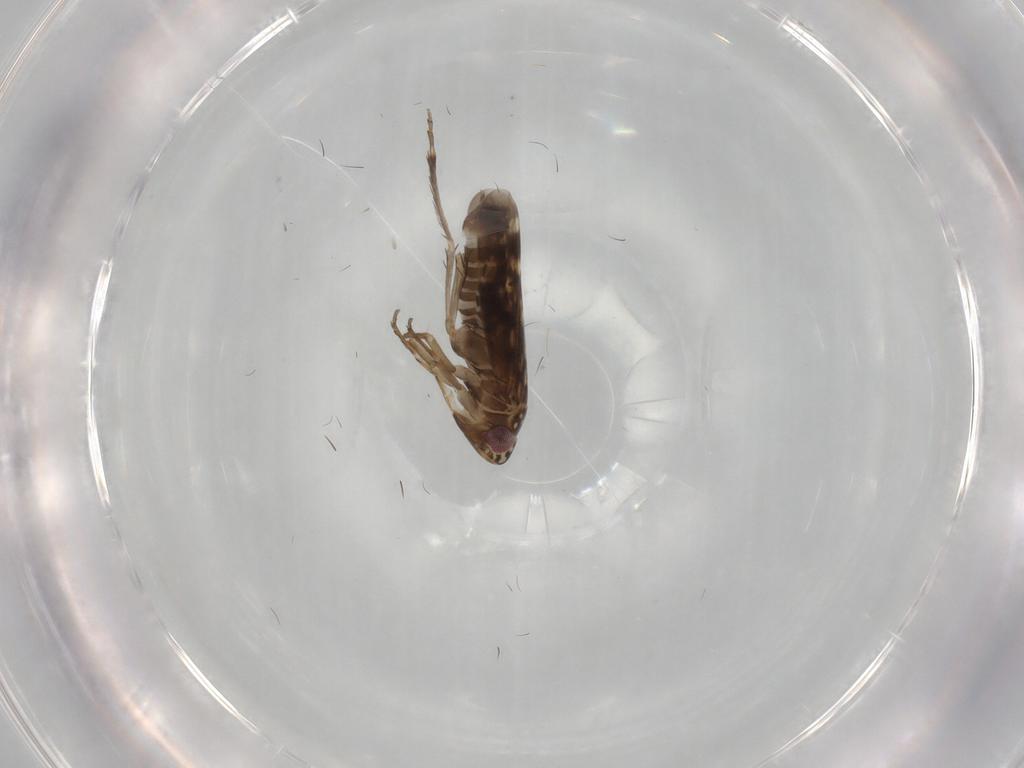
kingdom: Animalia
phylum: Arthropoda
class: Insecta
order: Hemiptera
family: Cicadellidae
